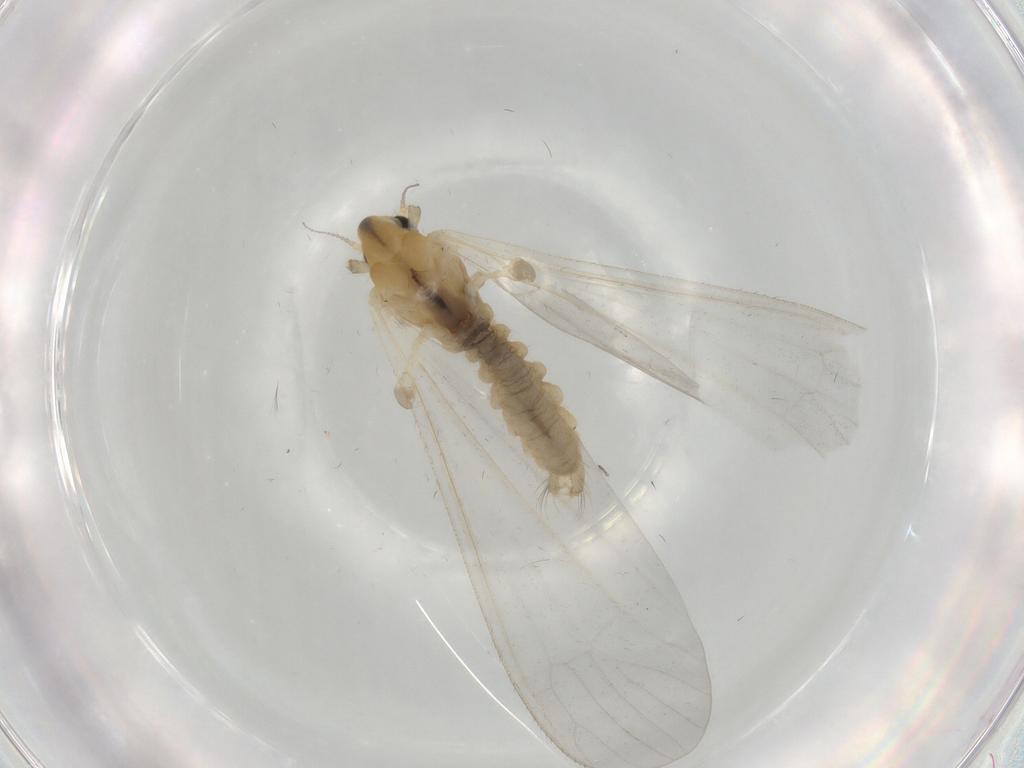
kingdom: Animalia
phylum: Arthropoda
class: Insecta
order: Diptera
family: Limoniidae
